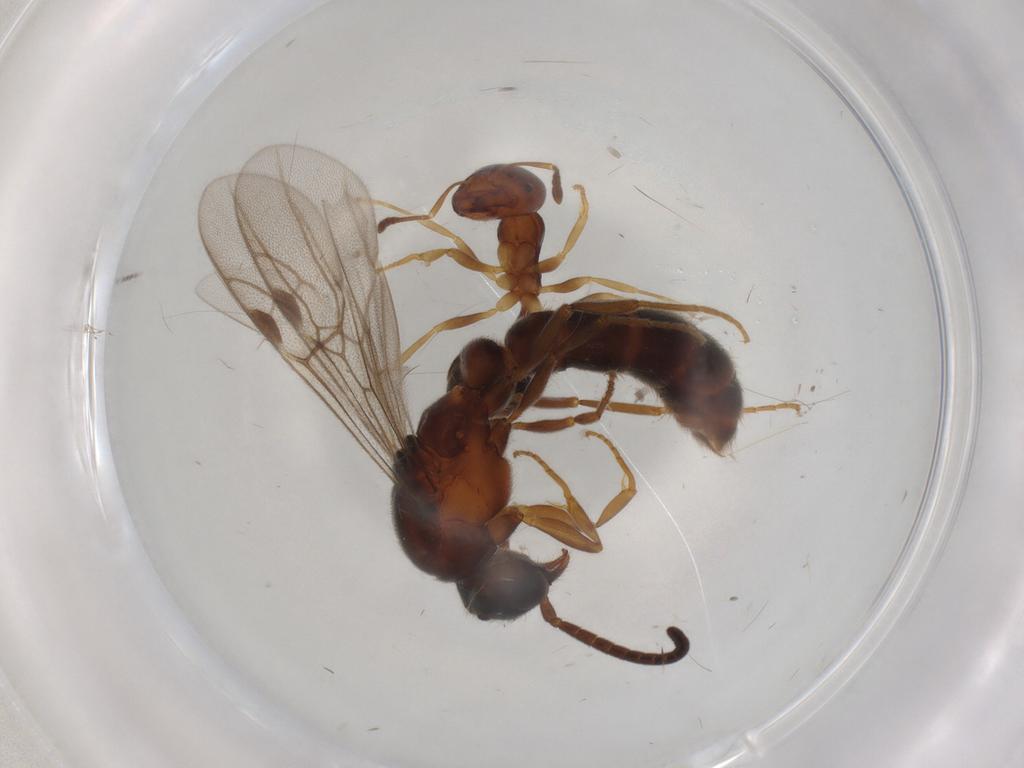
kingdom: Animalia
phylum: Arthropoda
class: Insecta
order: Hymenoptera
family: Formicidae
